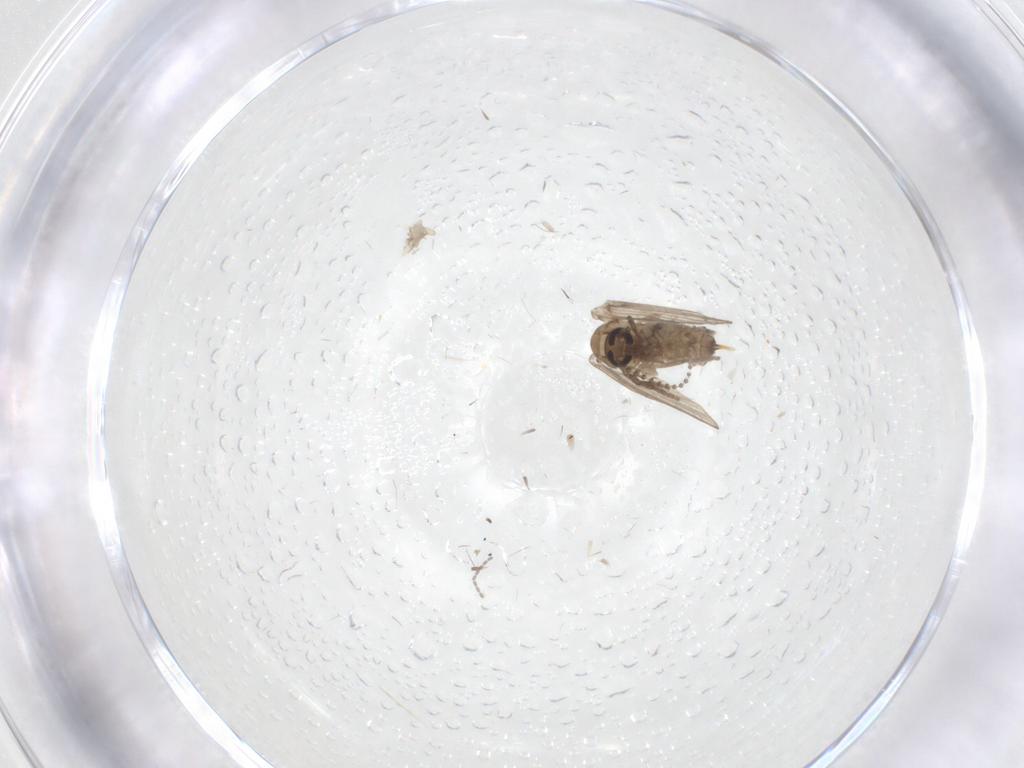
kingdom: Animalia
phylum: Arthropoda
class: Insecta
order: Diptera
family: Psychodidae
